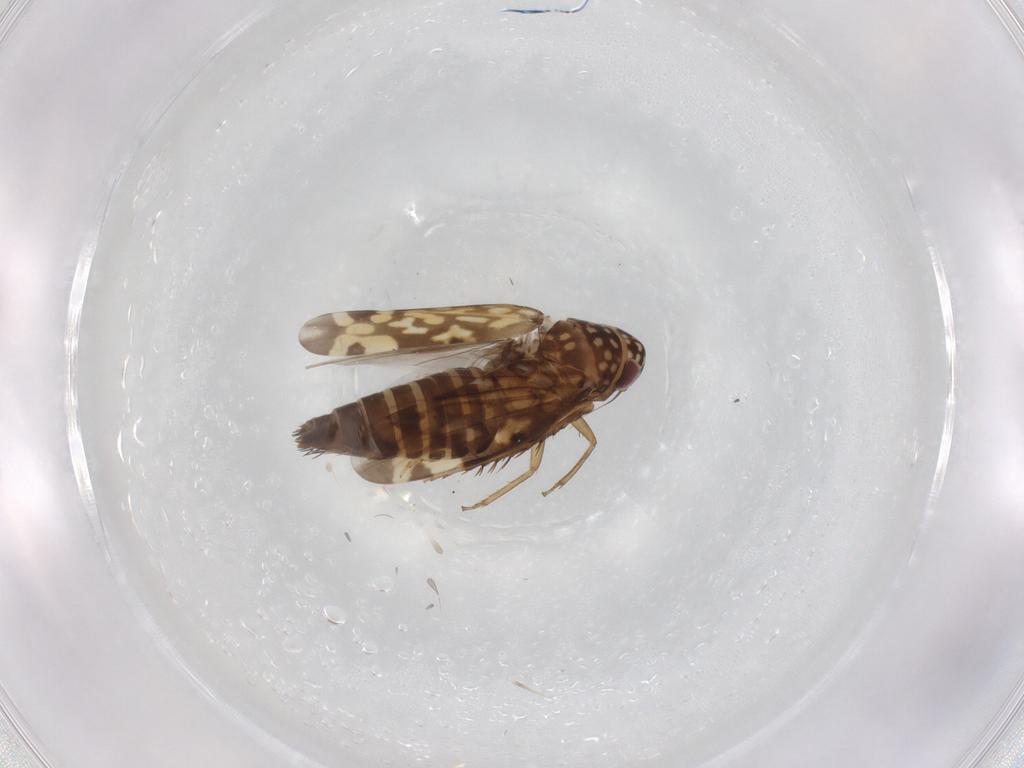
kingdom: Animalia
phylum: Arthropoda
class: Insecta
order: Hemiptera
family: Cicadellidae
